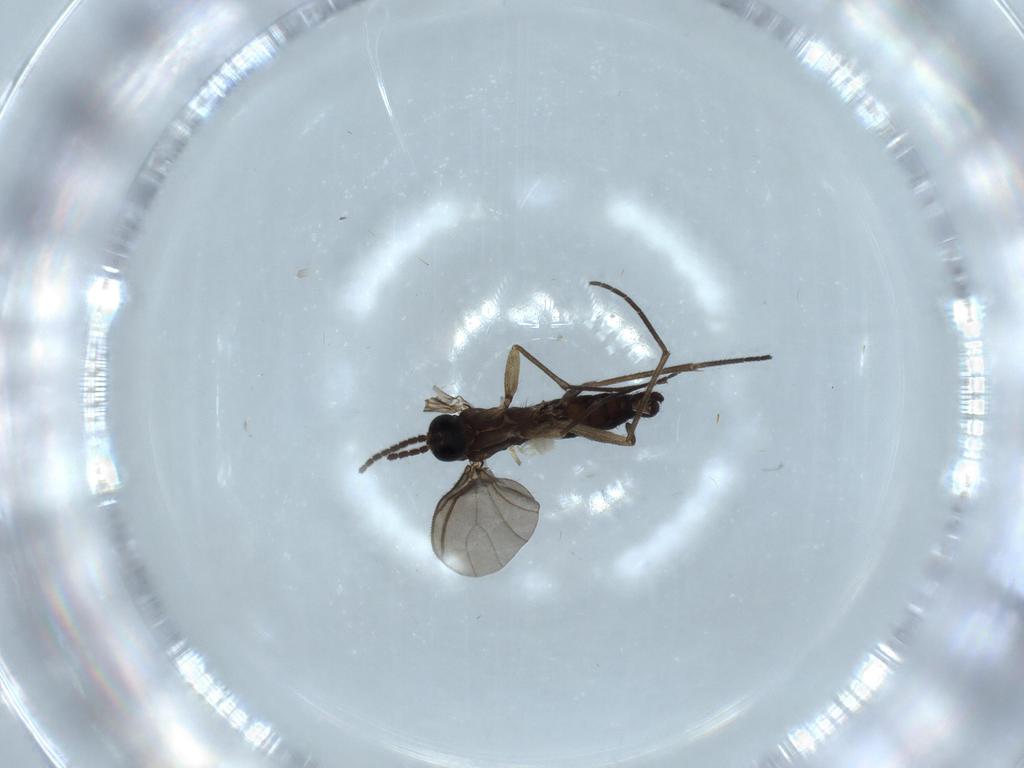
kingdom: Animalia
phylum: Arthropoda
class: Insecta
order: Diptera
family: Sciaridae
